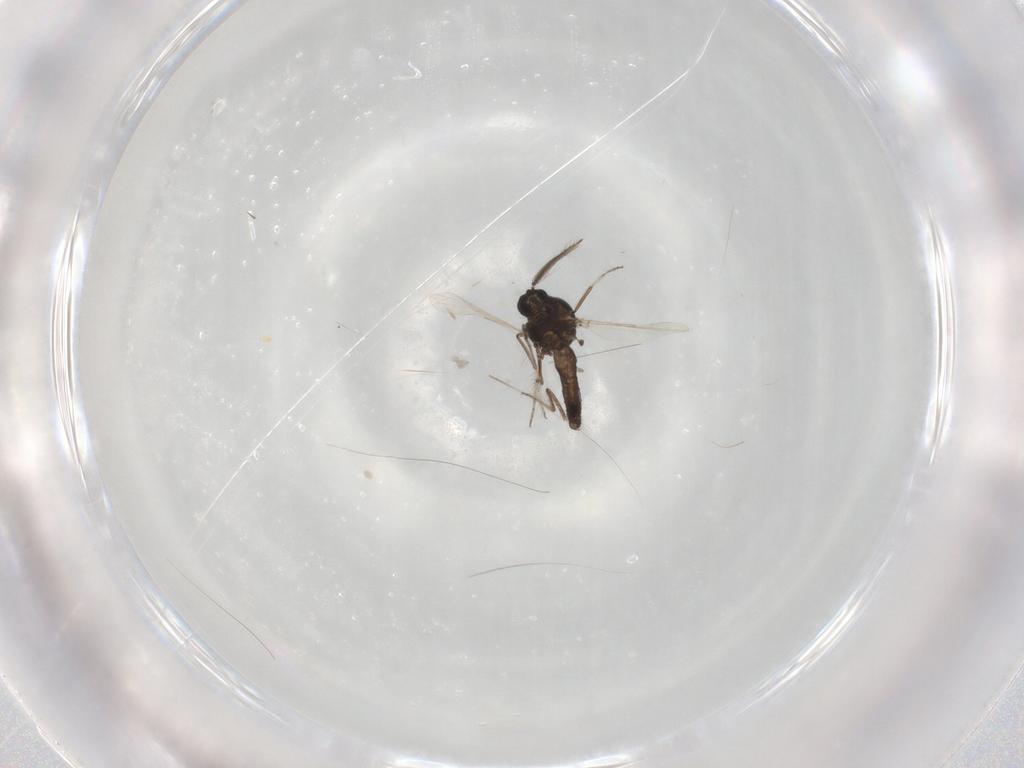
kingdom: Animalia
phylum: Arthropoda
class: Insecta
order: Diptera
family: Ceratopogonidae
